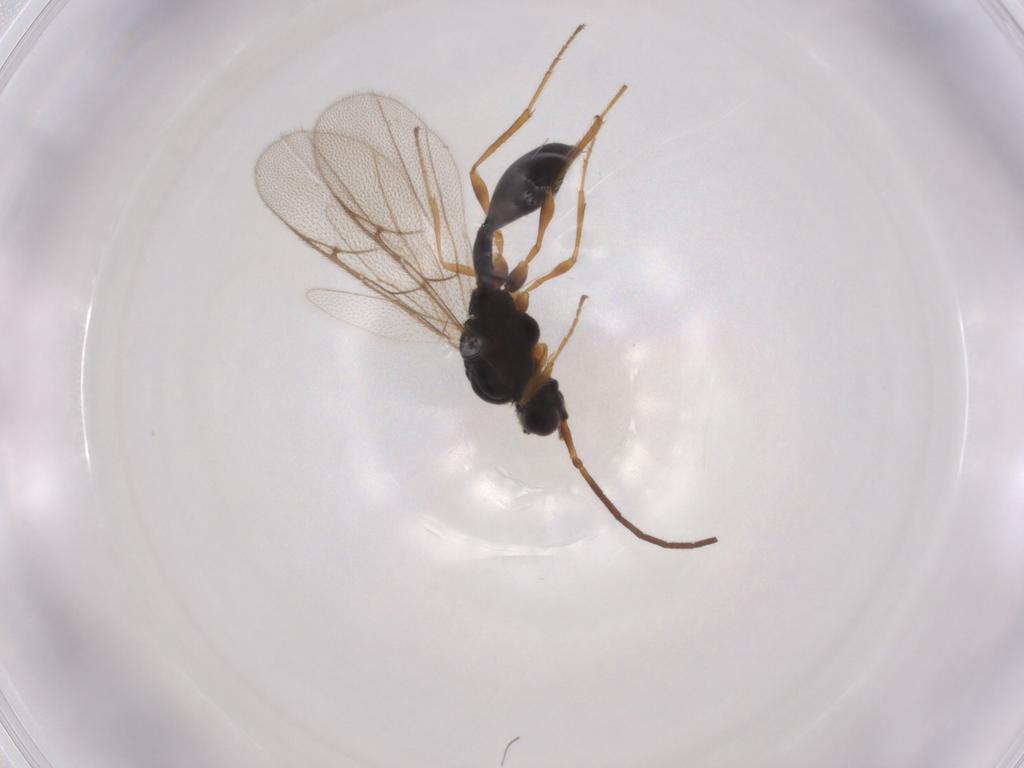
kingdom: Animalia
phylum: Arthropoda
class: Insecta
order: Hymenoptera
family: Diapriidae
